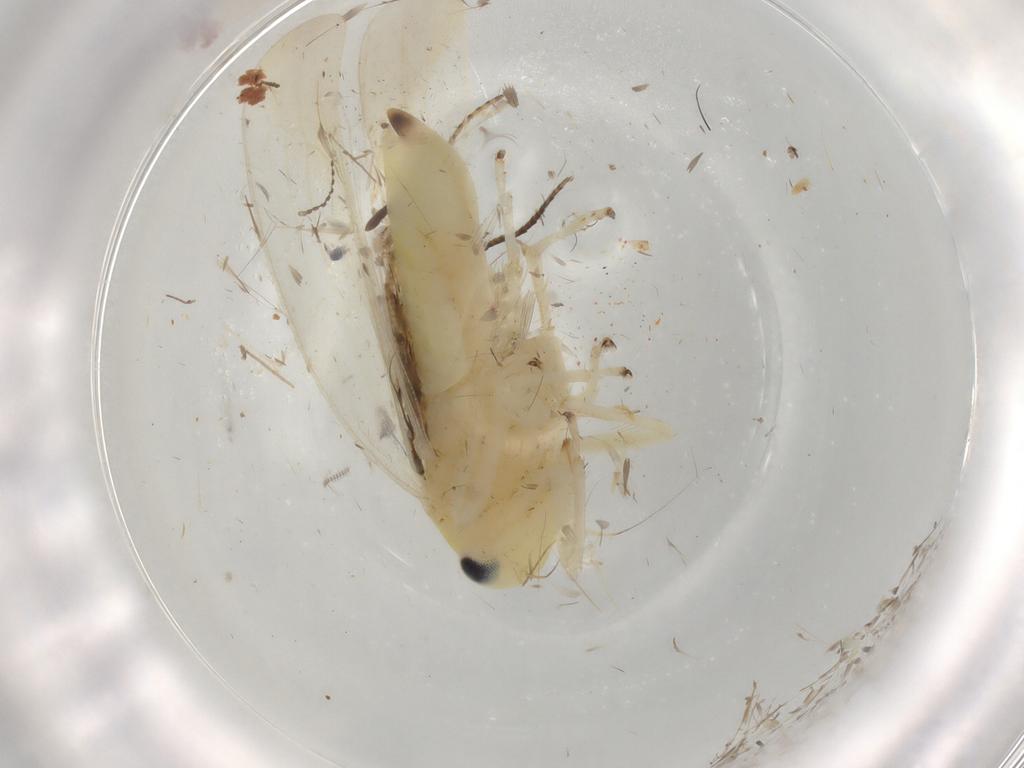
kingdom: Animalia
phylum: Arthropoda
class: Insecta
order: Hemiptera
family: Cicadellidae
